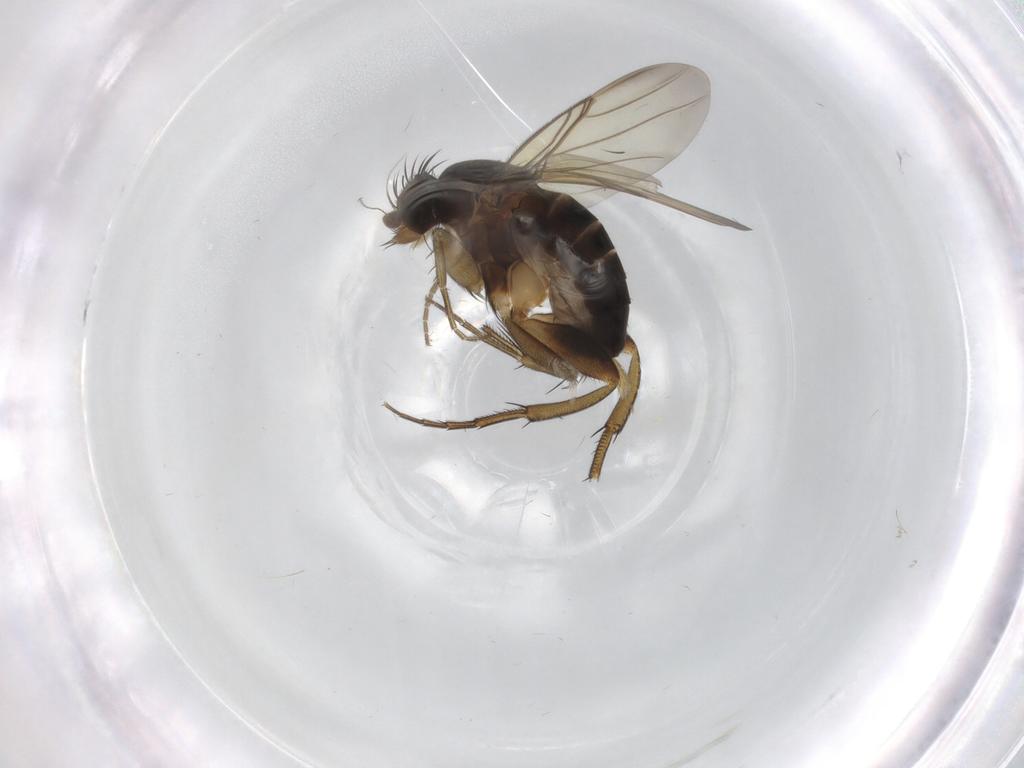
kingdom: Animalia
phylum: Arthropoda
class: Insecta
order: Diptera
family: Phoridae
